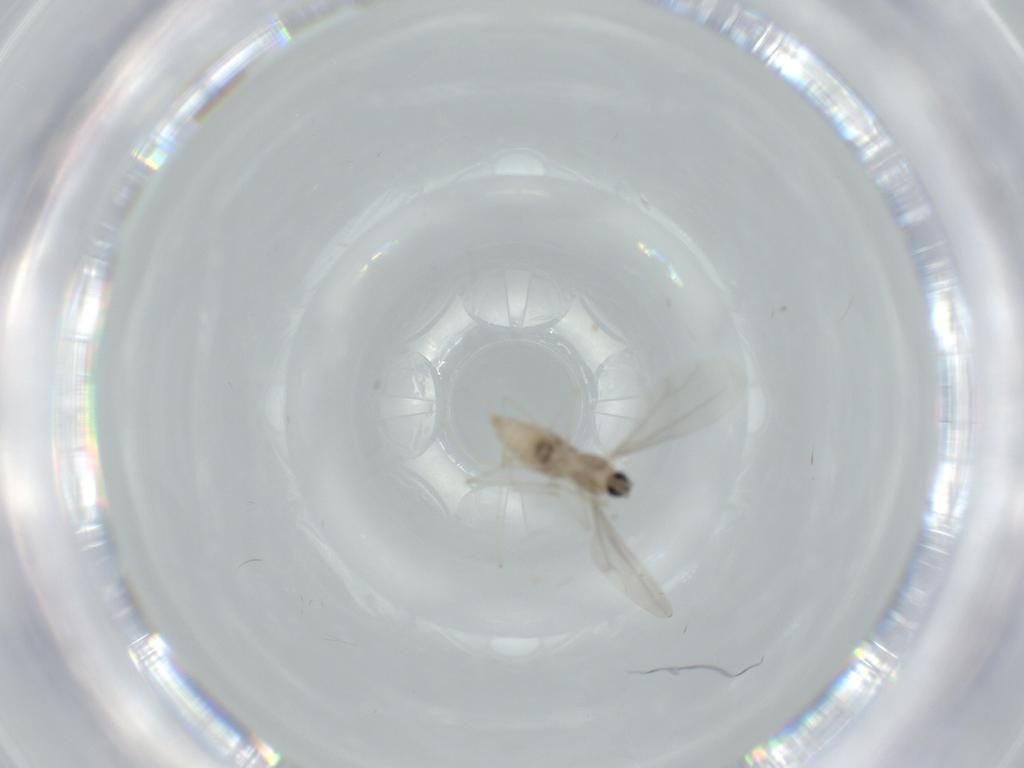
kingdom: Animalia
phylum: Arthropoda
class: Insecta
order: Diptera
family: Cecidomyiidae
